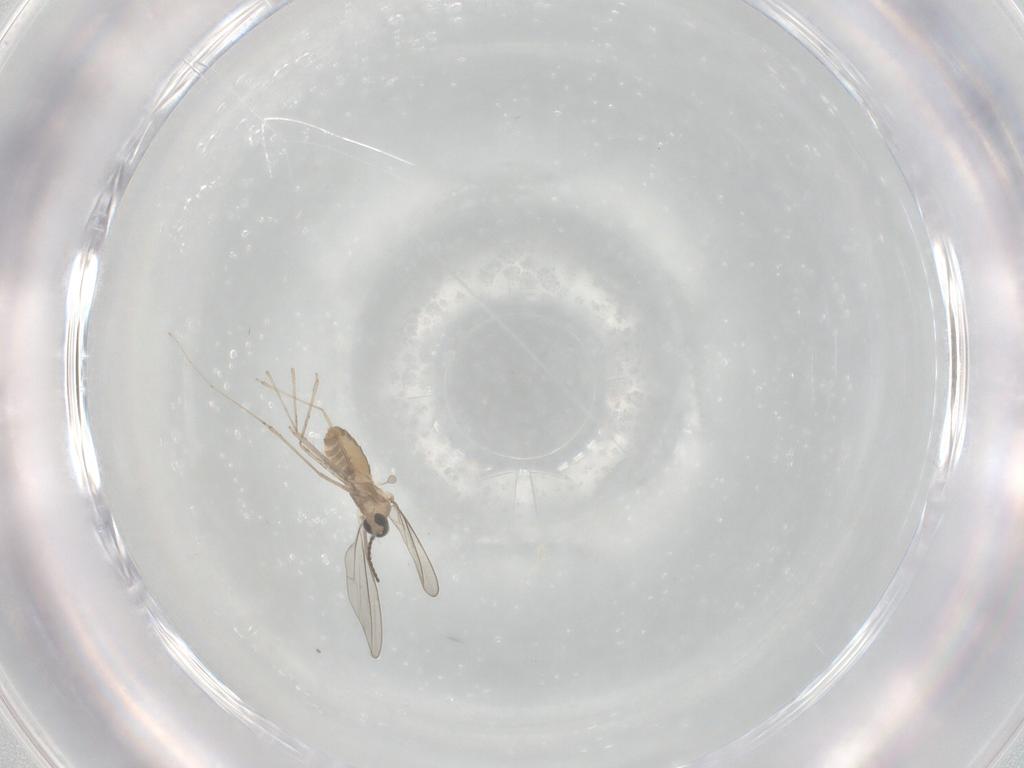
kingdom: Animalia
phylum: Arthropoda
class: Insecta
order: Diptera
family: Cecidomyiidae
